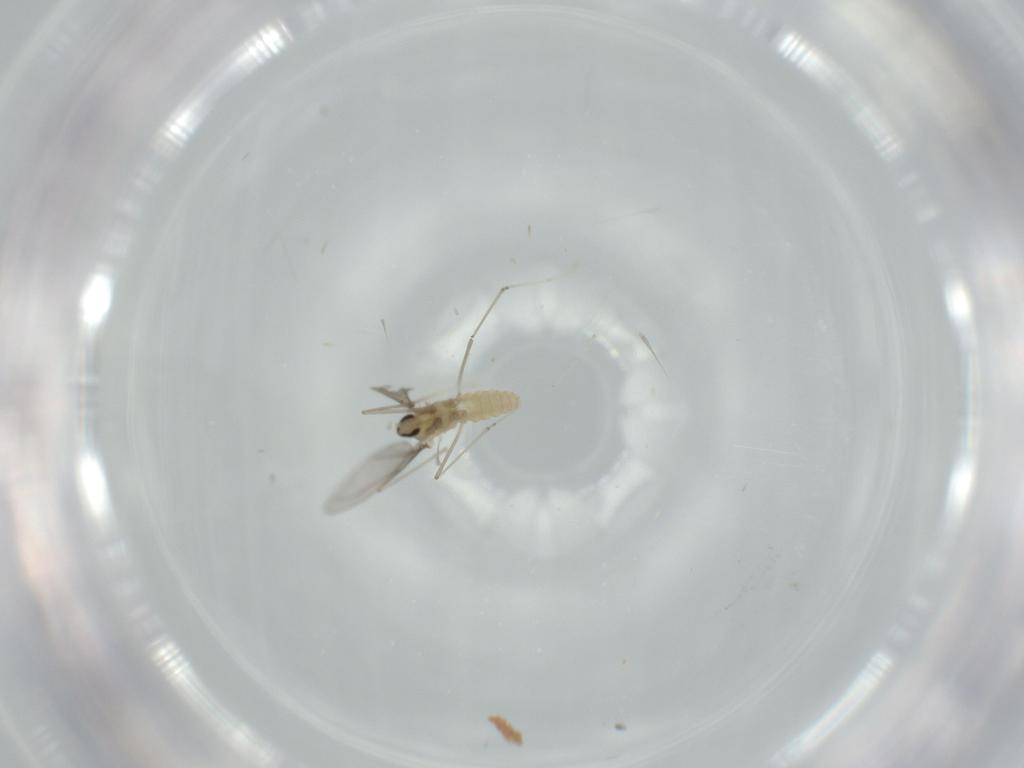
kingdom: Animalia
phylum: Arthropoda
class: Insecta
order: Diptera
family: Cecidomyiidae
